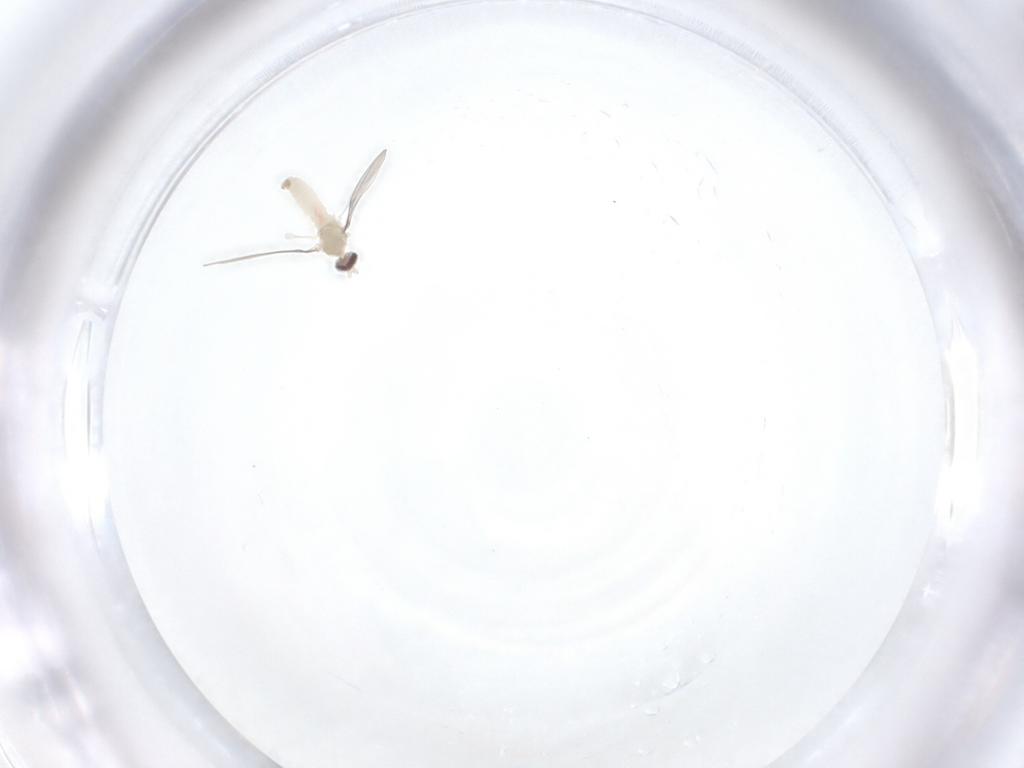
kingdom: Animalia
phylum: Arthropoda
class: Insecta
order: Diptera
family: Cecidomyiidae
